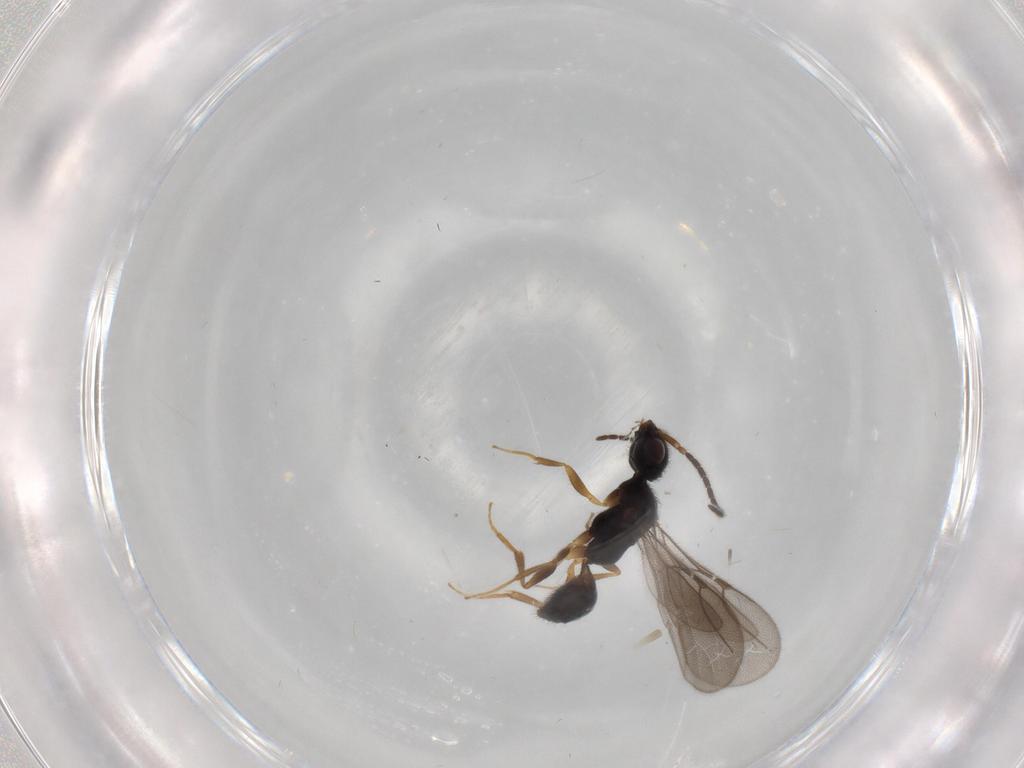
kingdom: Animalia
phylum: Arthropoda
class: Insecta
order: Hymenoptera
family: Bethylidae
